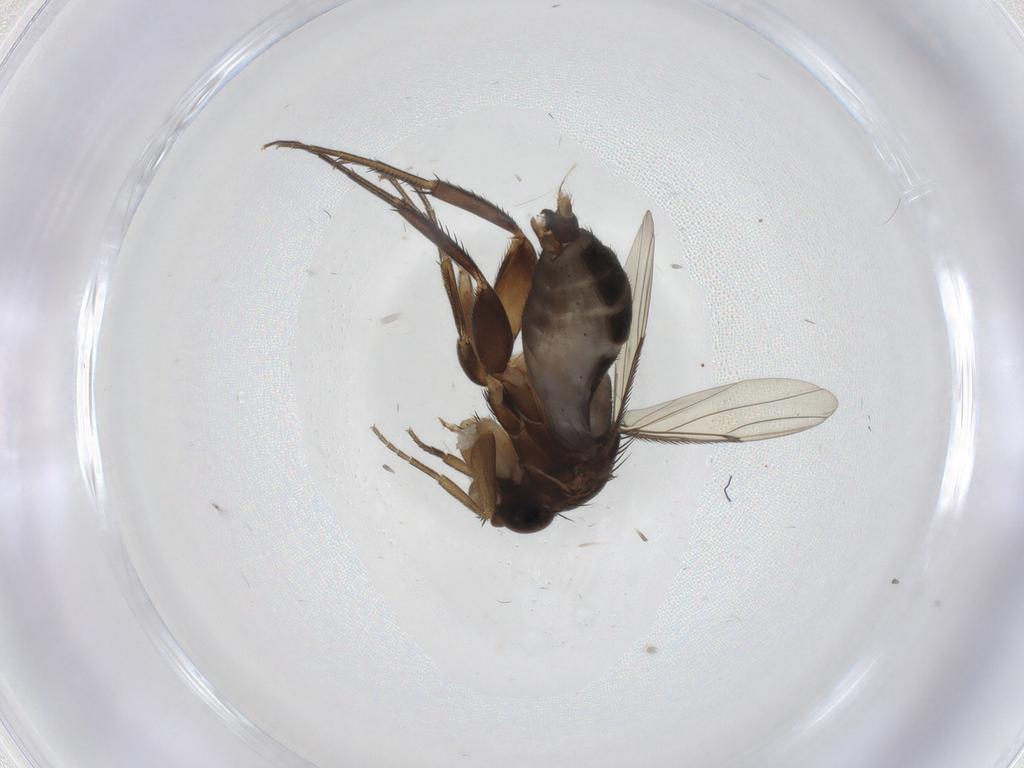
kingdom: Animalia
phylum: Arthropoda
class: Insecta
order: Diptera
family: Phoridae
